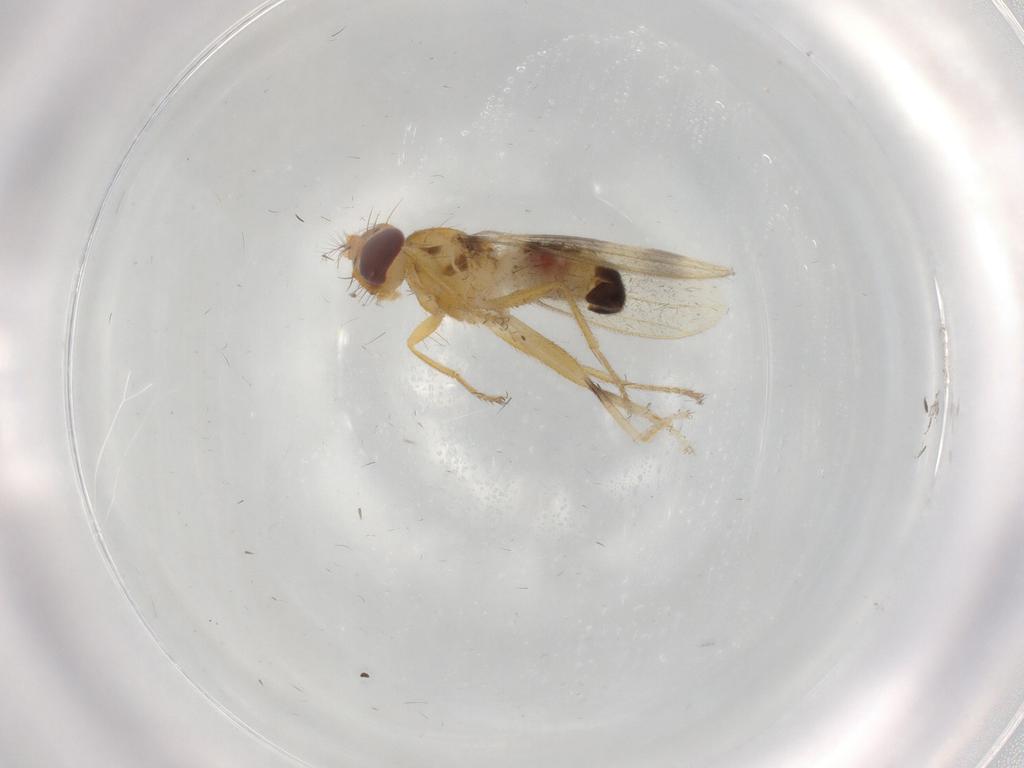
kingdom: Animalia
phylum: Arthropoda
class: Insecta
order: Diptera
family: Periscelididae
